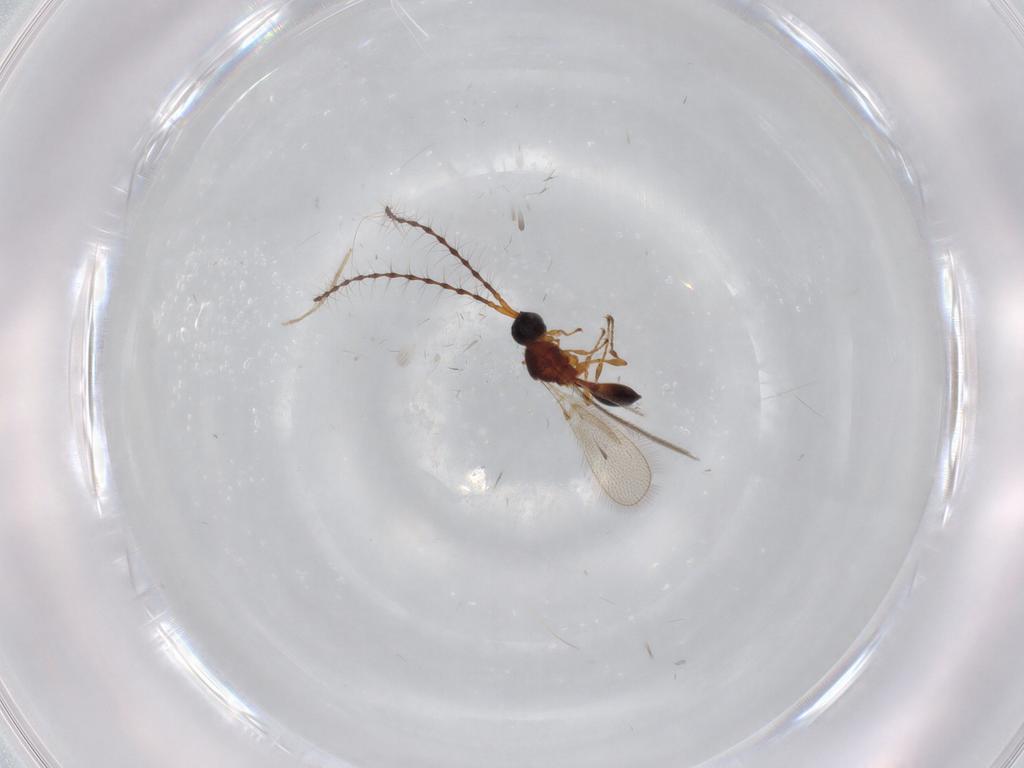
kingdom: Animalia
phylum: Arthropoda
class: Insecta
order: Hymenoptera
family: Diapriidae
